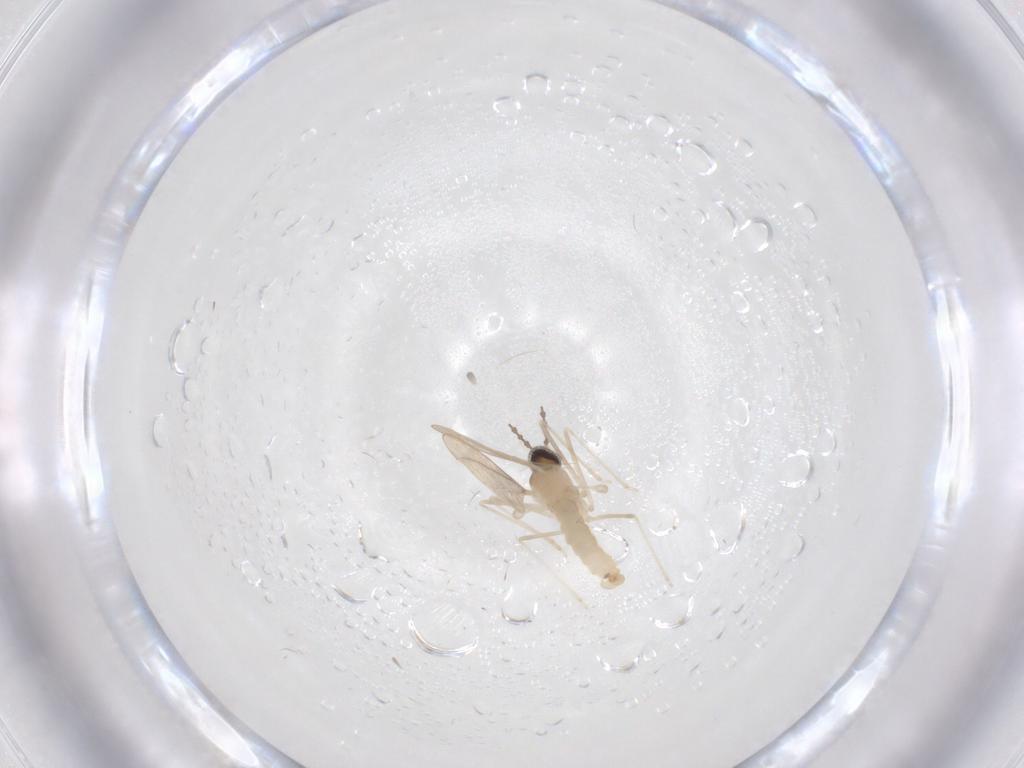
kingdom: Animalia
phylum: Arthropoda
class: Insecta
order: Diptera
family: Cecidomyiidae
